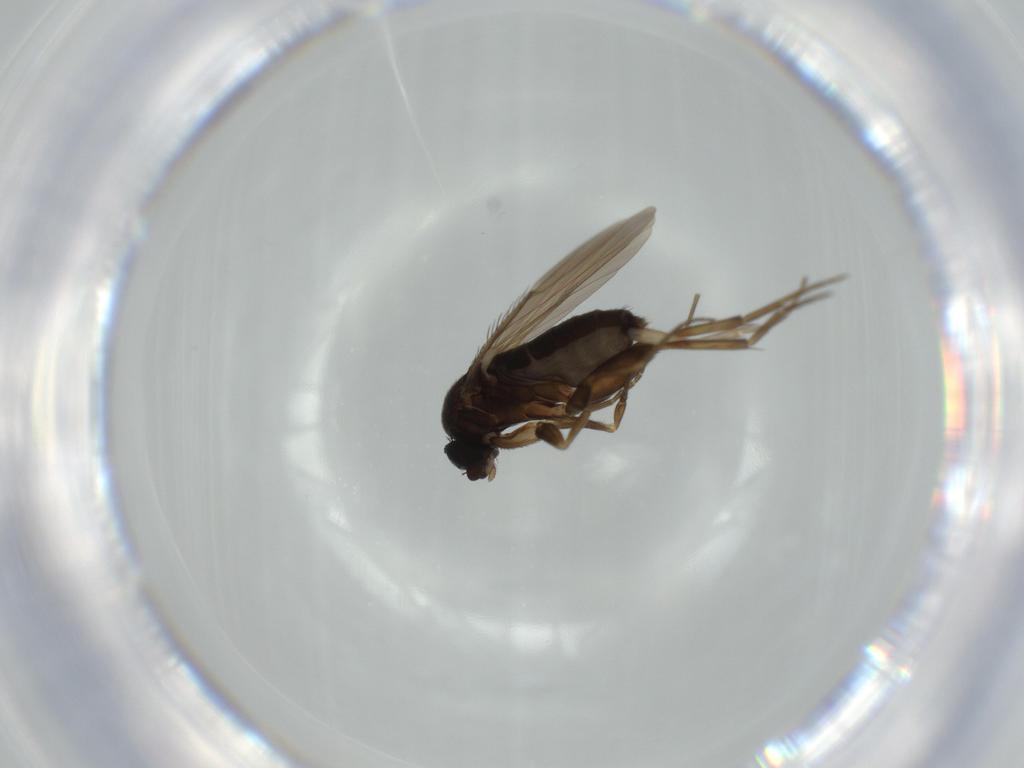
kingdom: Animalia
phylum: Arthropoda
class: Insecta
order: Diptera
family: Phoridae
